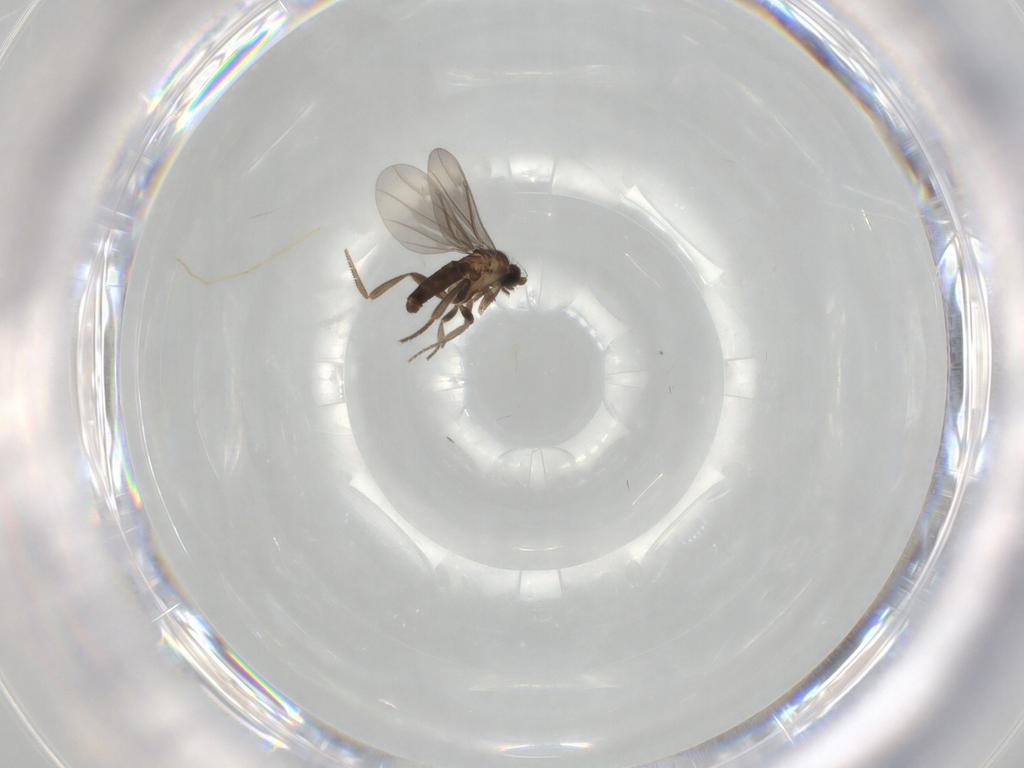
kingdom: Animalia
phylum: Arthropoda
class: Insecta
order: Diptera
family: Phoridae
